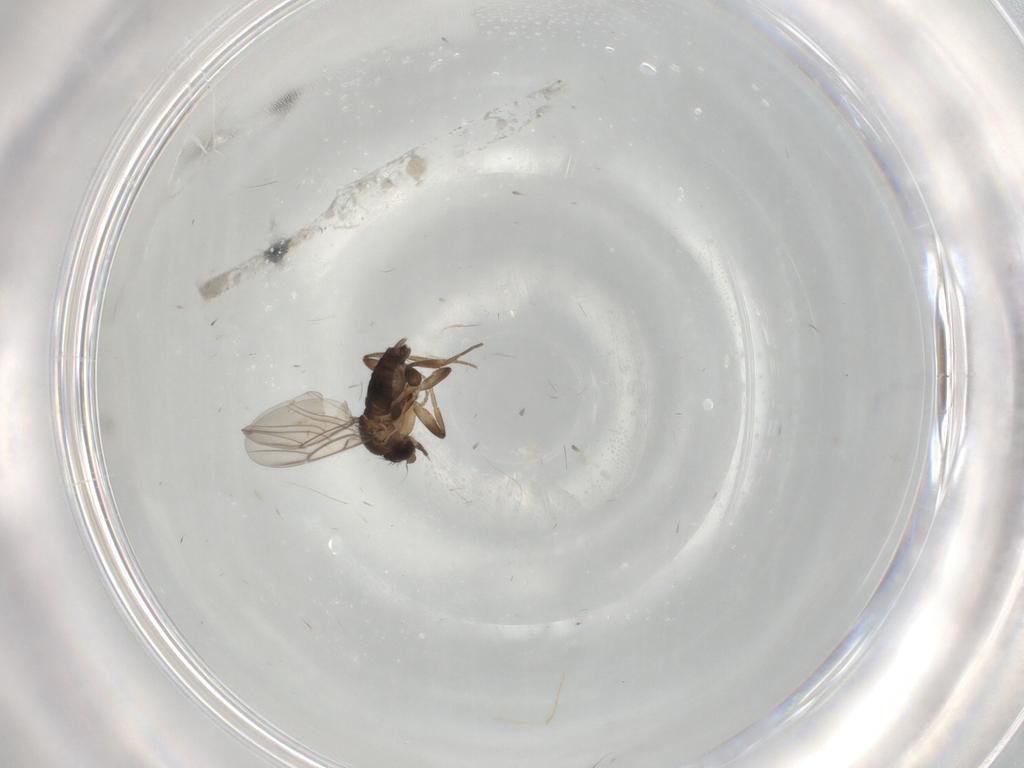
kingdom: Animalia
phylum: Arthropoda
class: Insecta
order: Diptera
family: Phoridae
